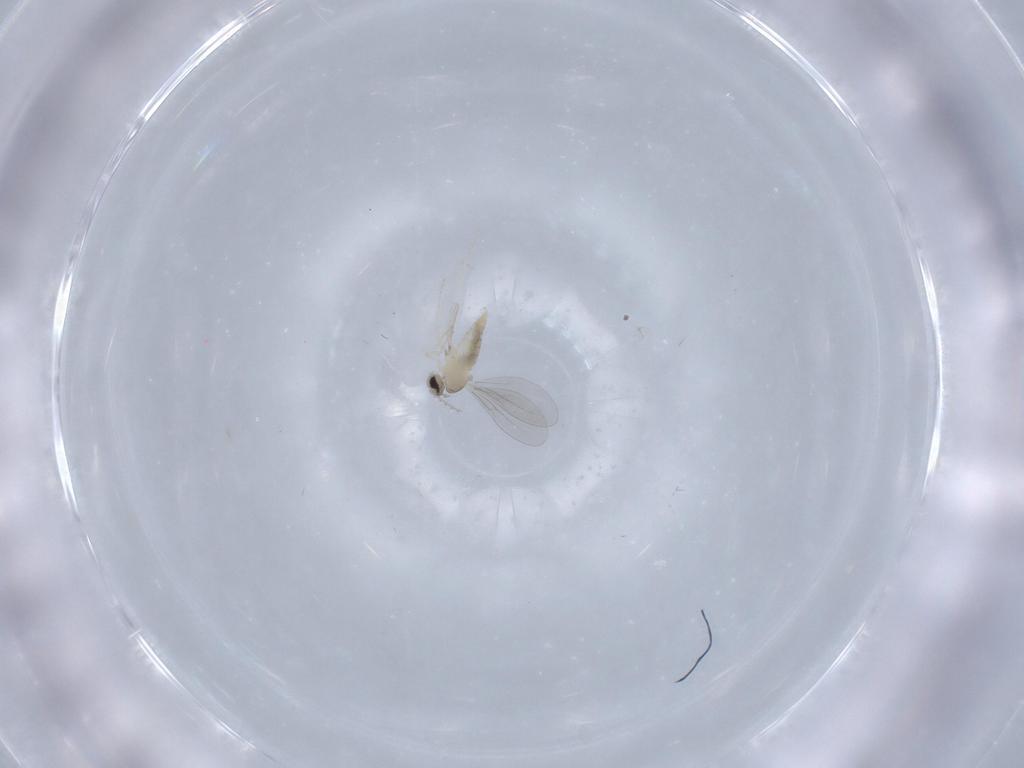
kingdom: Animalia
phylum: Arthropoda
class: Insecta
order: Diptera
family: Cecidomyiidae
